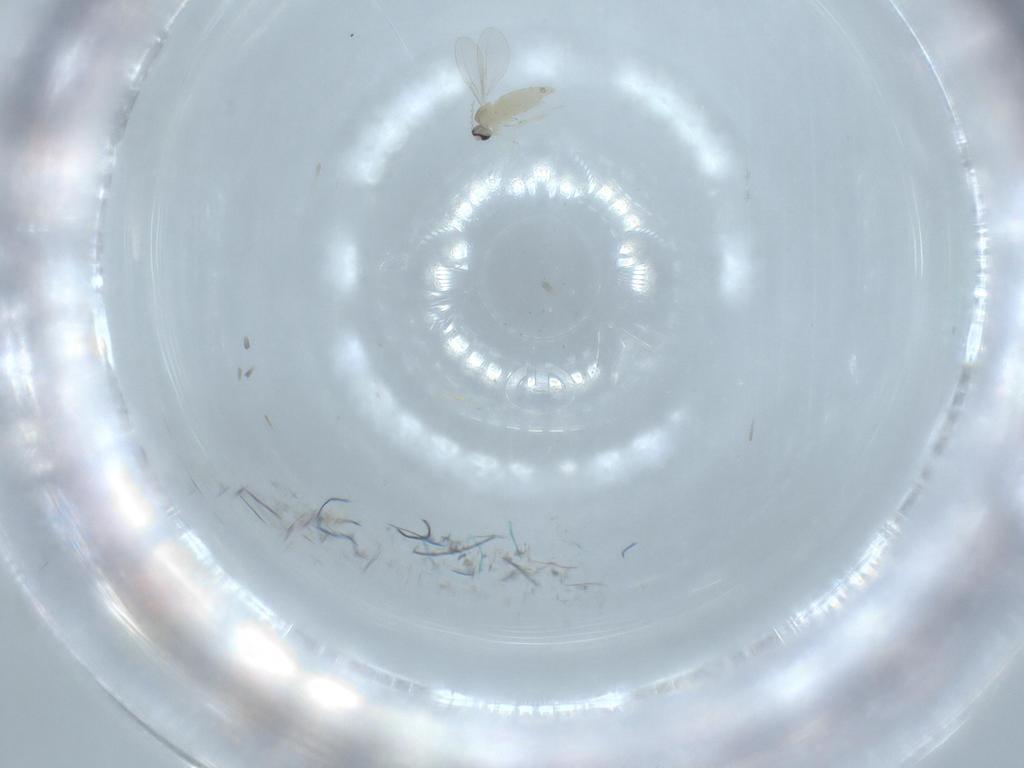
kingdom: Animalia
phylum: Arthropoda
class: Insecta
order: Diptera
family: Cecidomyiidae
